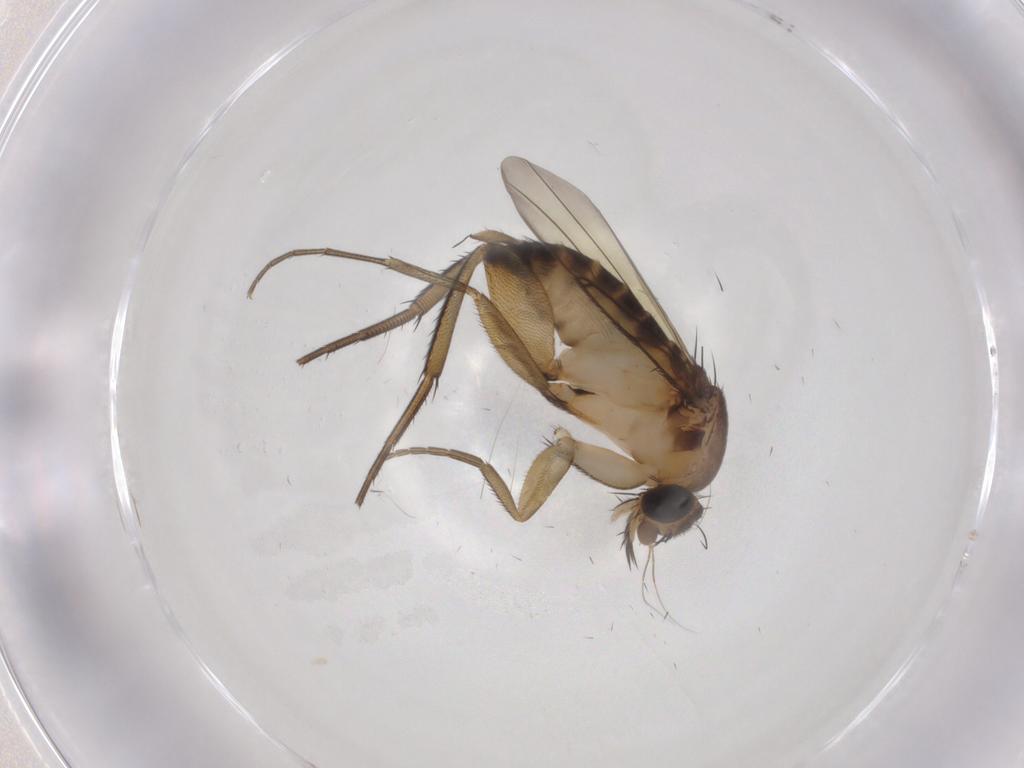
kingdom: Animalia
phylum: Arthropoda
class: Insecta
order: Diptera
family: Phoridae
